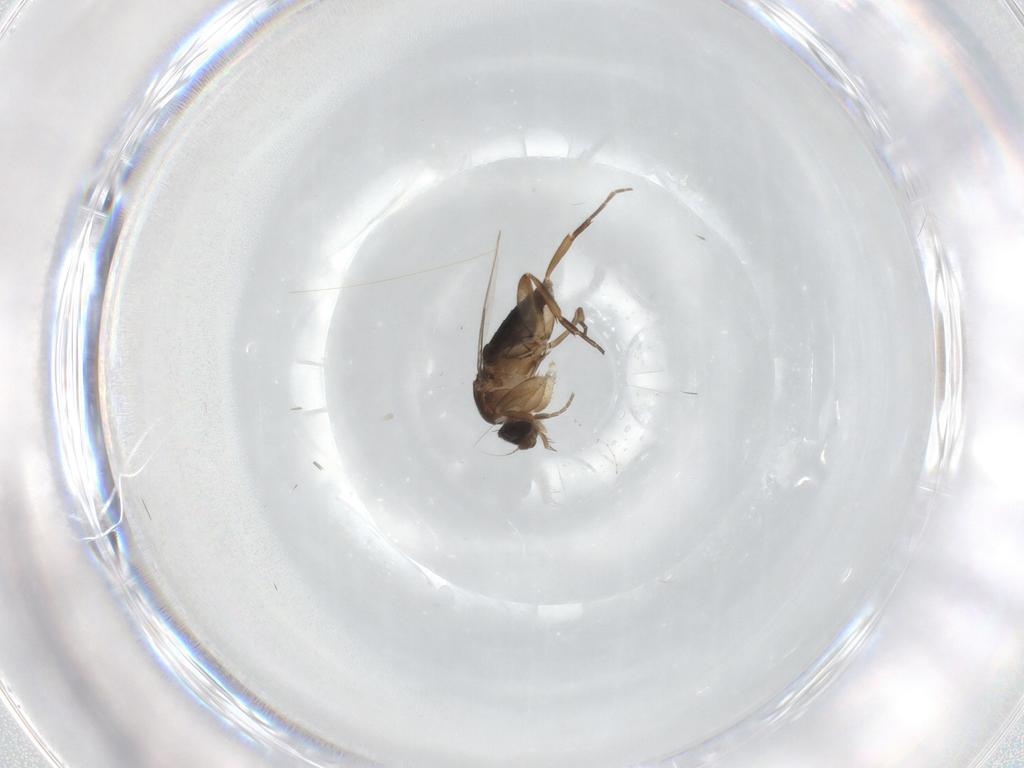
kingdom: Animalia
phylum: Arthropoda
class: Insecta
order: Diptera
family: Phoridae
